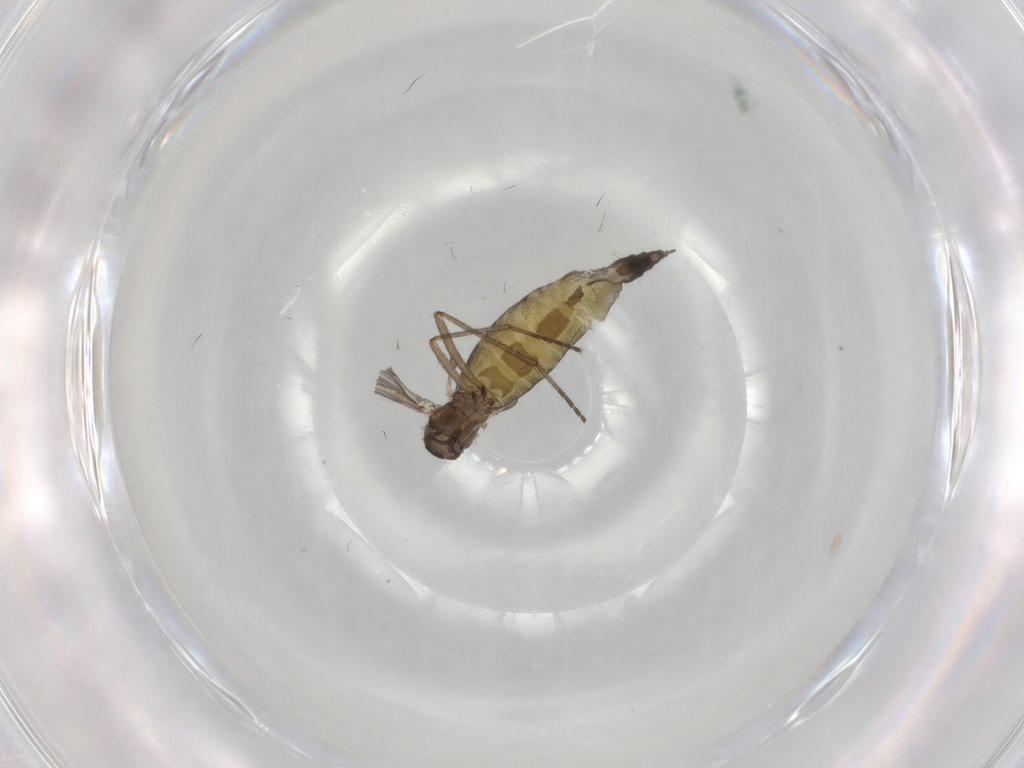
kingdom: Animalia
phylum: Arthropoda
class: Insecta
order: Diptera
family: Sciaridae
